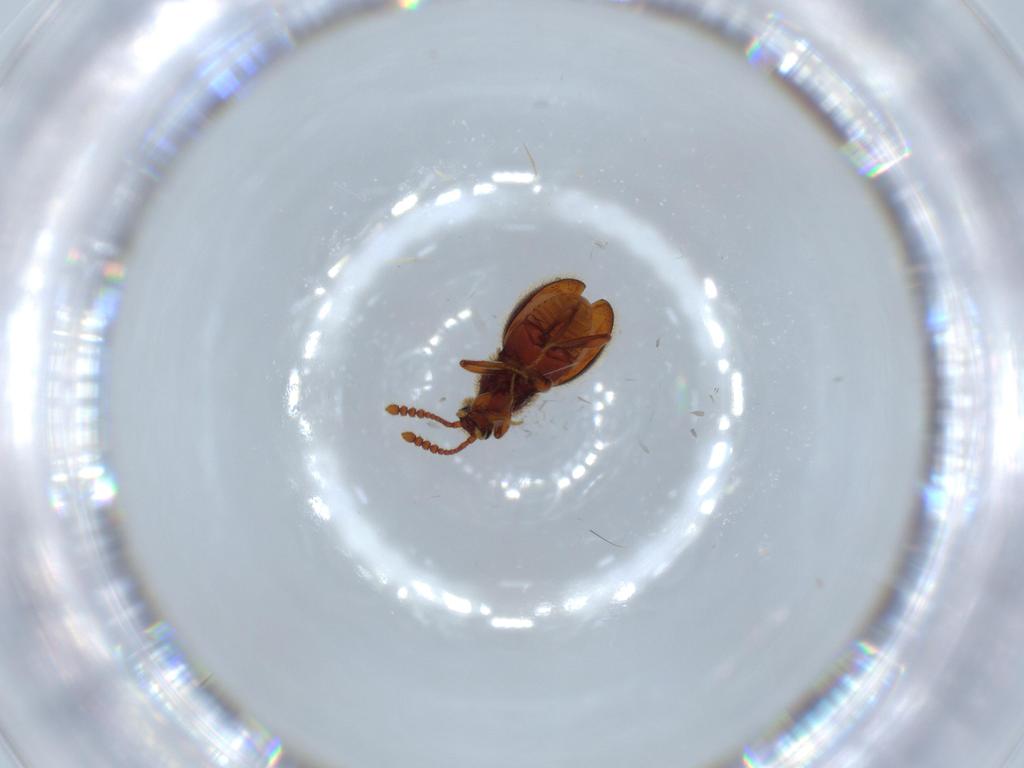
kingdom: Animalia
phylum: Arthropoda
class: Insecta
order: Coleoptera
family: Staphylinidae
